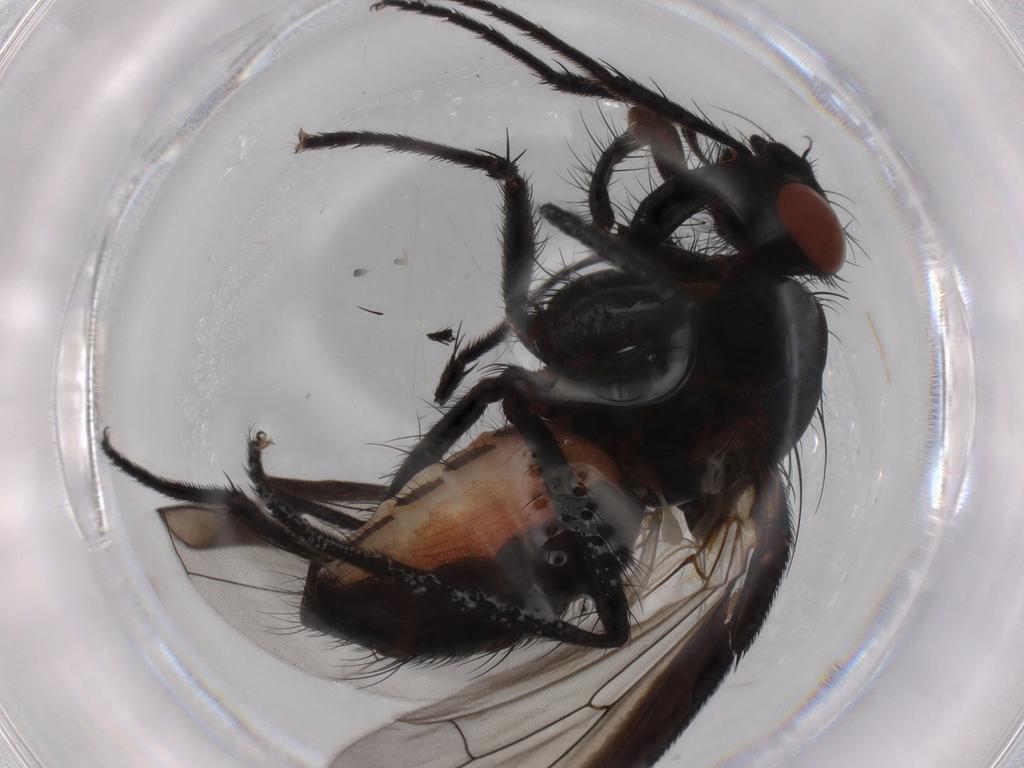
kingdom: Animalia
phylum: Arthropoda
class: Insecta
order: Diptera
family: Anthomyiidae
